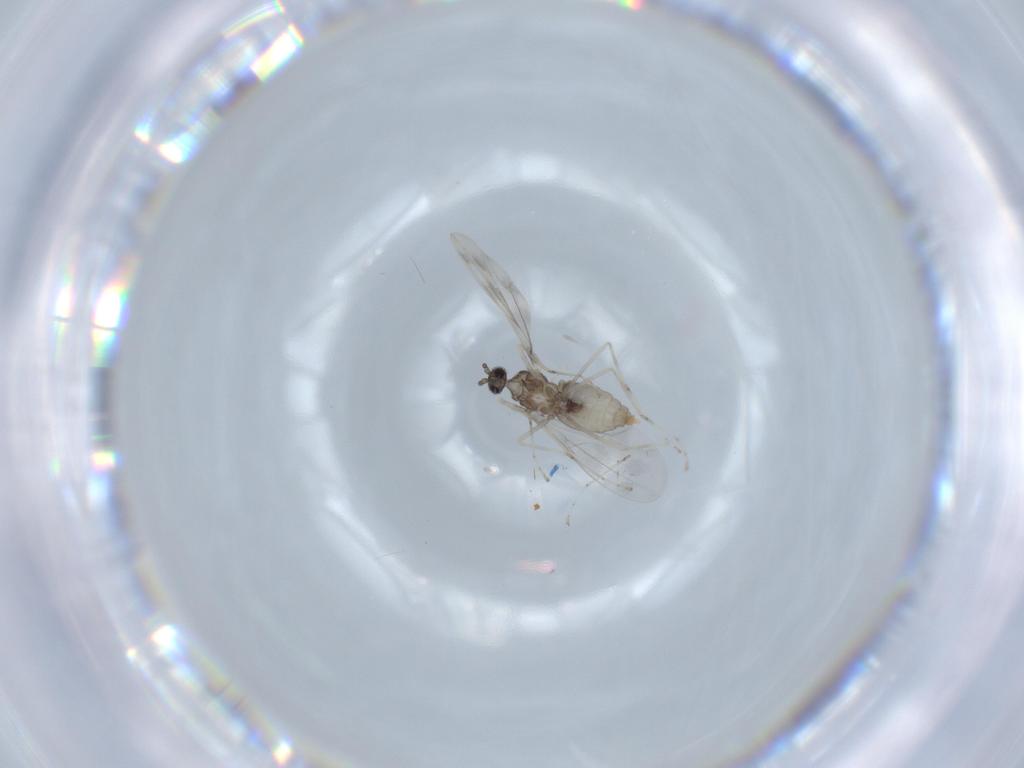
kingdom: Animalia
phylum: Arthropoda
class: Insecta
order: Diptera
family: Cecidomyiidae
